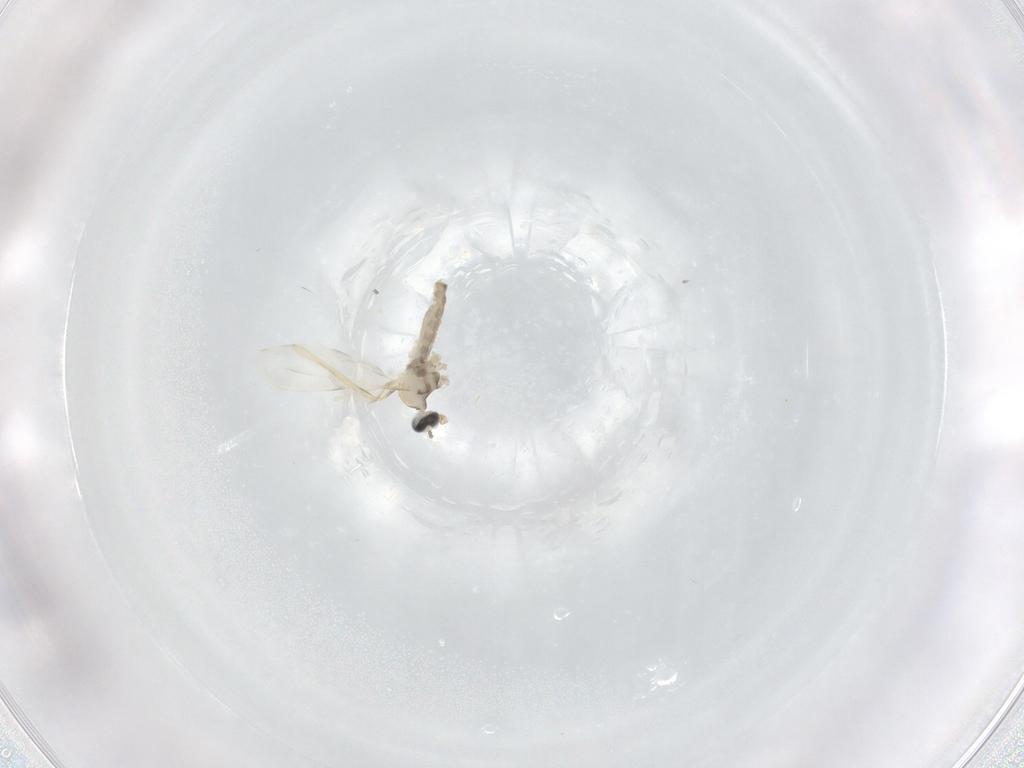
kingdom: Animalia
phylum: Arthropoda
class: Insecta
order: Diptera
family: Cecidomyiidae
